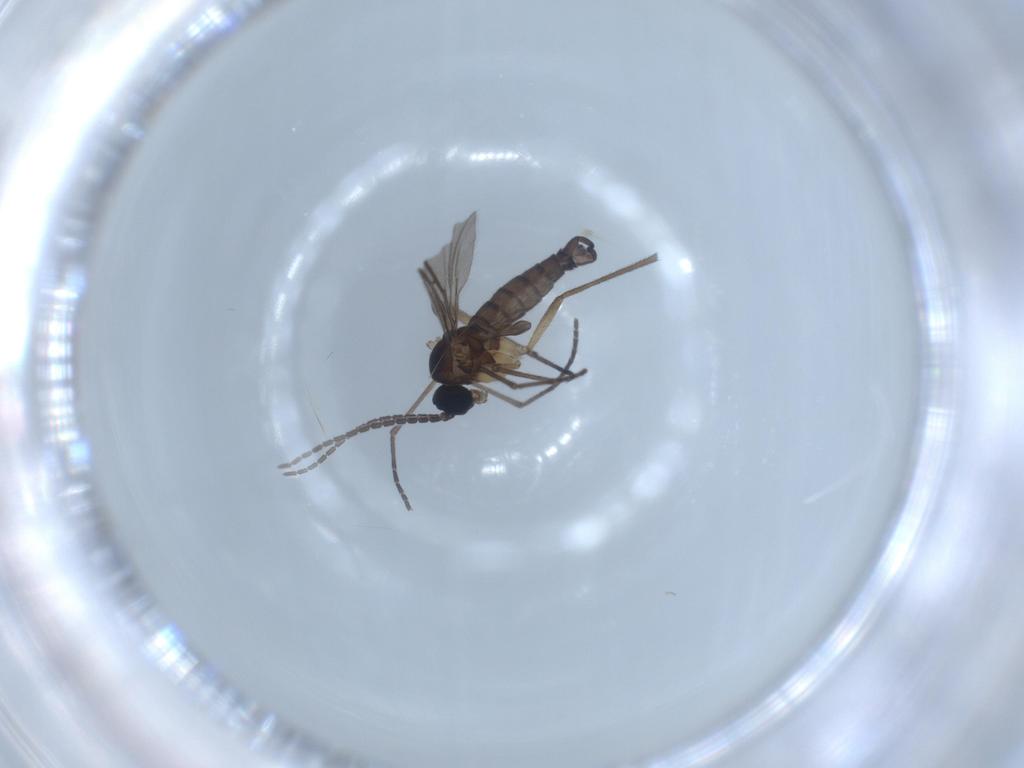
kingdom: Animalia
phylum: Arthropoda
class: Insecta
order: Diptera
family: Sciaridae
